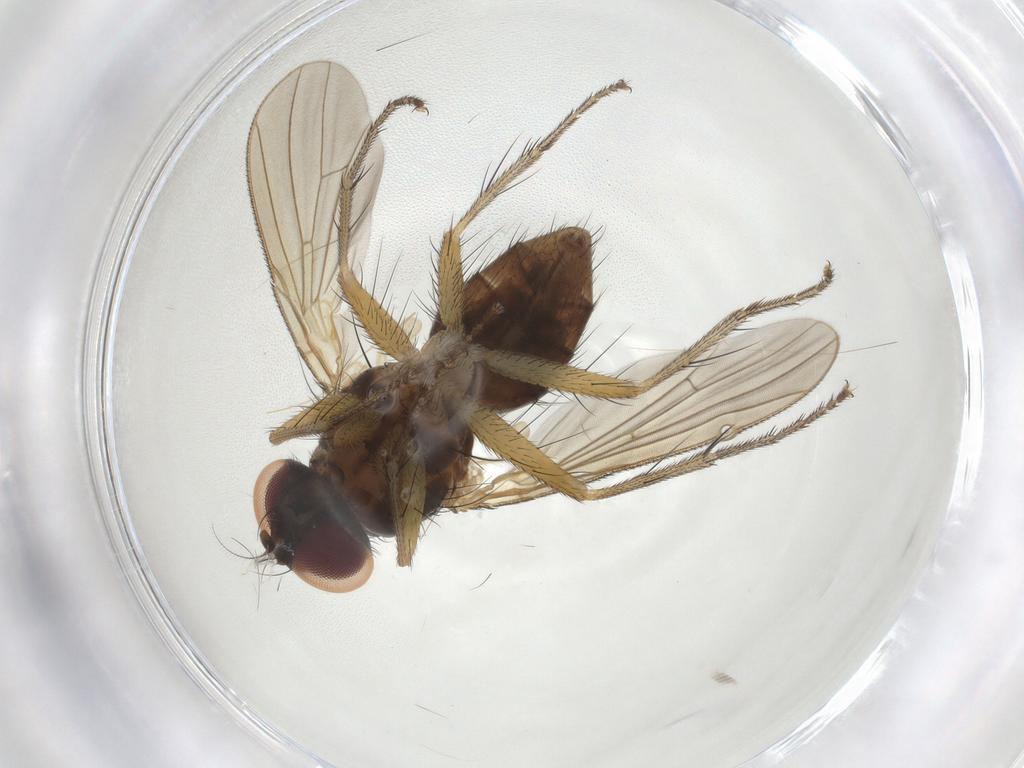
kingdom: Animalia
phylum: Arthropoda
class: Insecta
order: Diptera
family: Anthomyiidae
